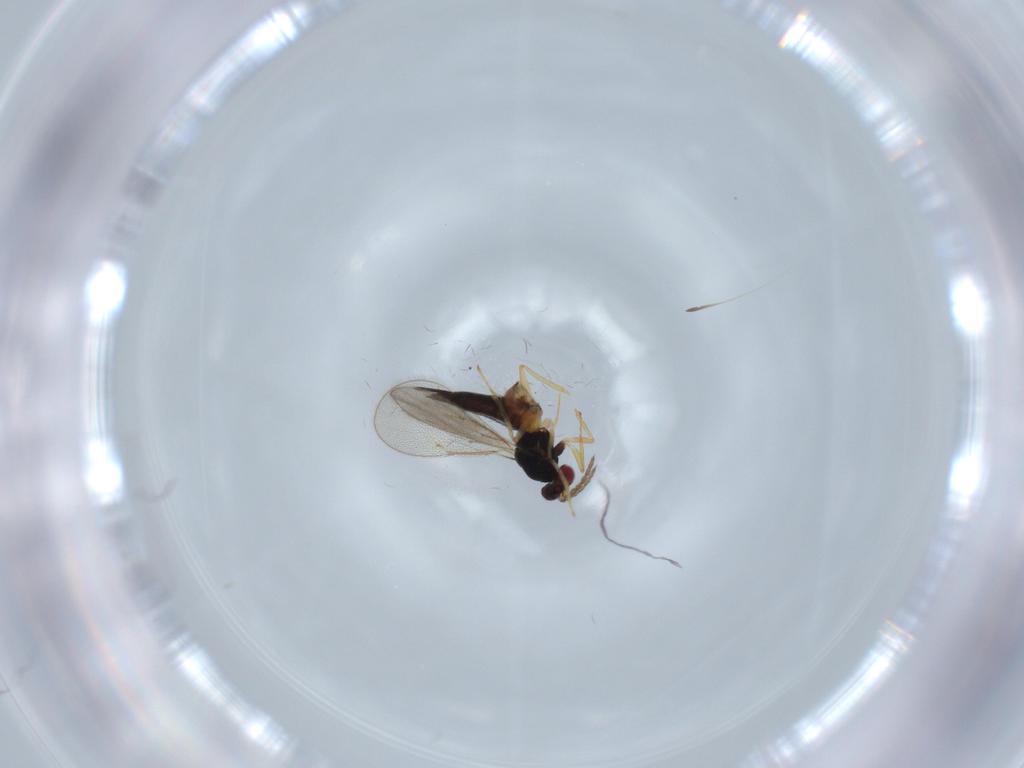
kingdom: Animalia
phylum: Arthropoda
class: Insecta
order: Hymenoptera
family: Eulophidae
